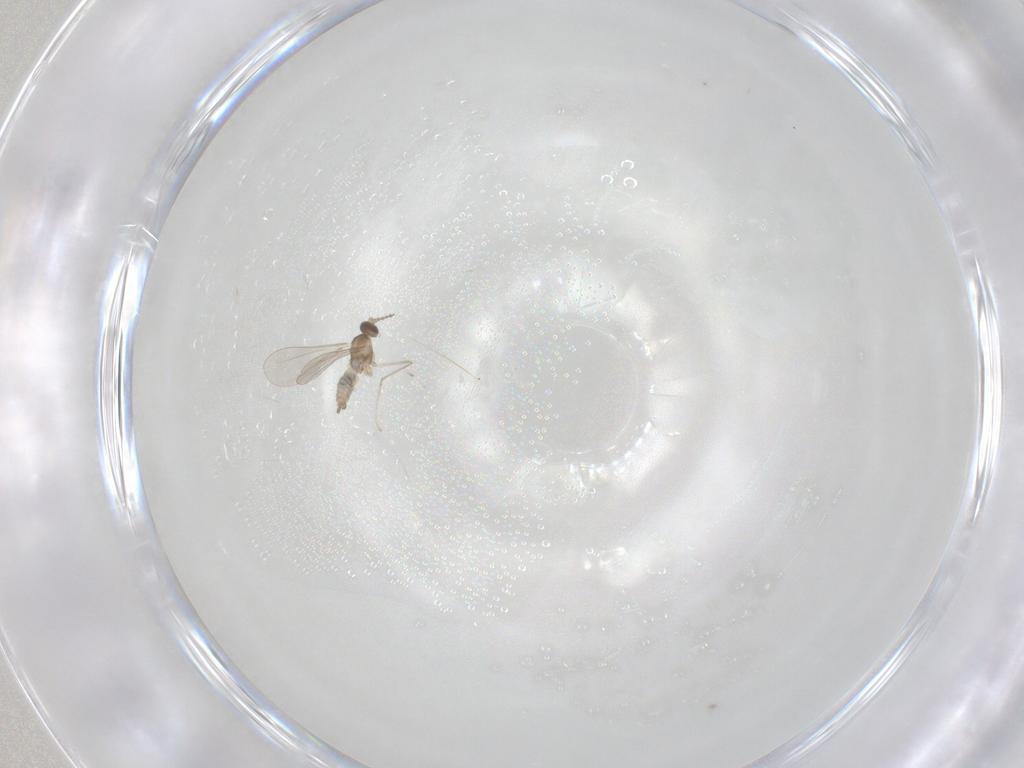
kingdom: Animalia
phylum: Arthropoda
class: Insecta
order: Diptera
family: Cecidomyiidae
